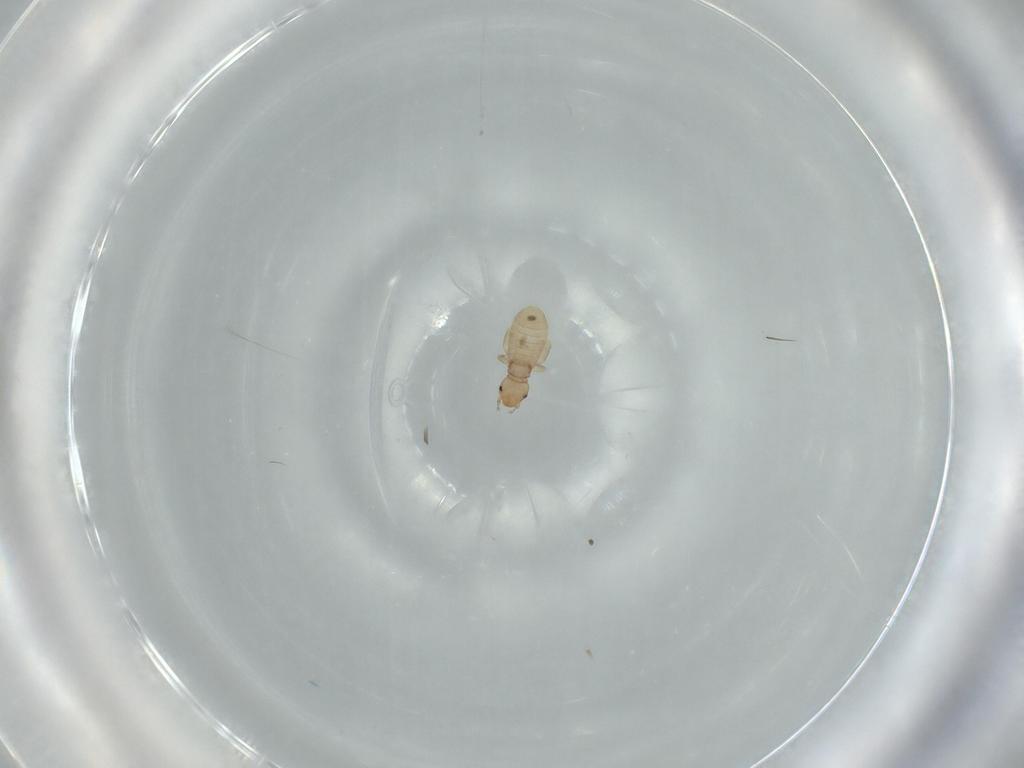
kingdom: Animalia
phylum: Arthropoda
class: Insecta
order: Psocodea
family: Liposcelididae
